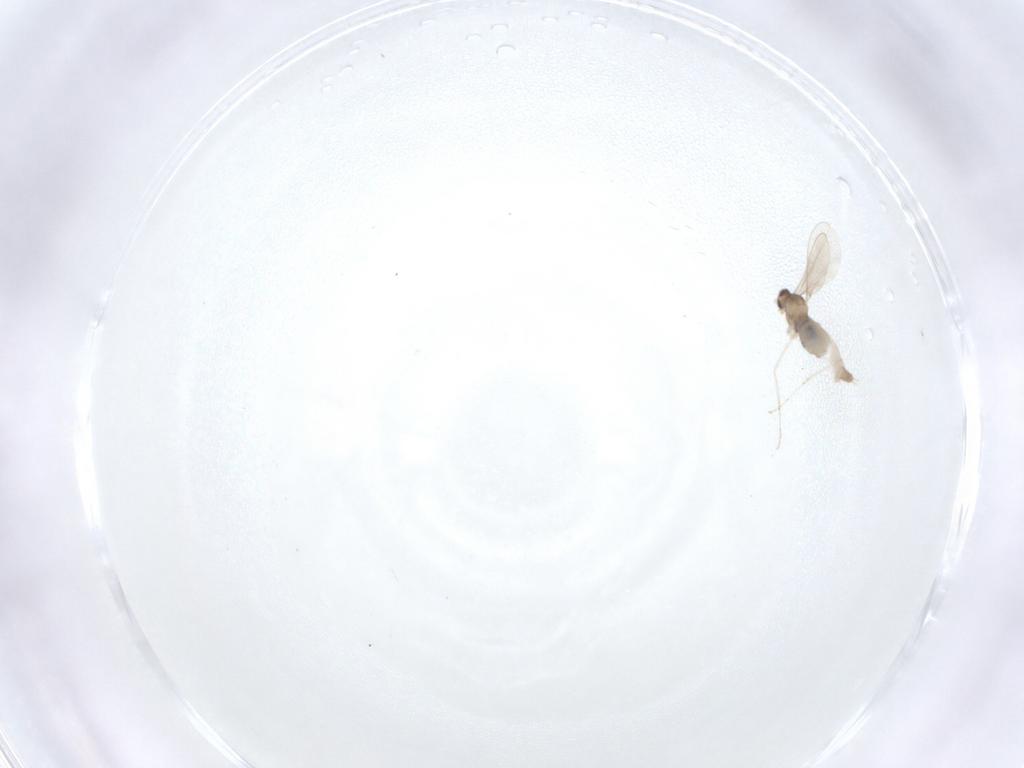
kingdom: Animalia
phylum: Arthropoda
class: Insecta
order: Diptera
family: Cecidomyiidae
